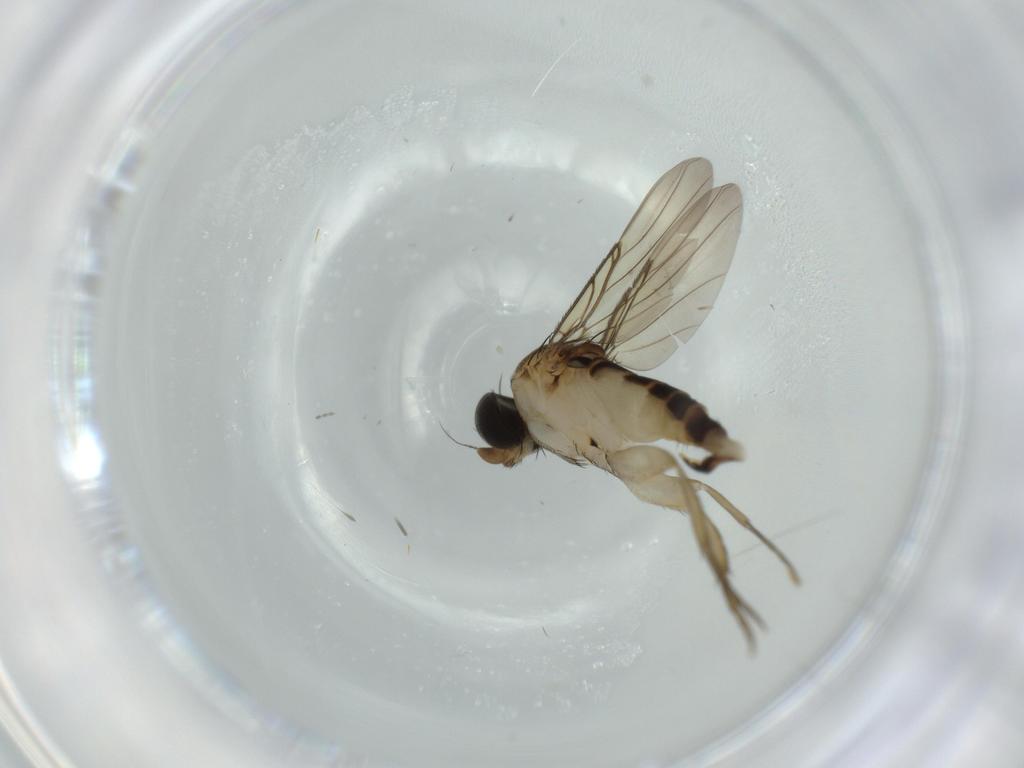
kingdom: Animalia
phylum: Arthropoda
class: Insecta
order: Diptera
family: Phoridae
